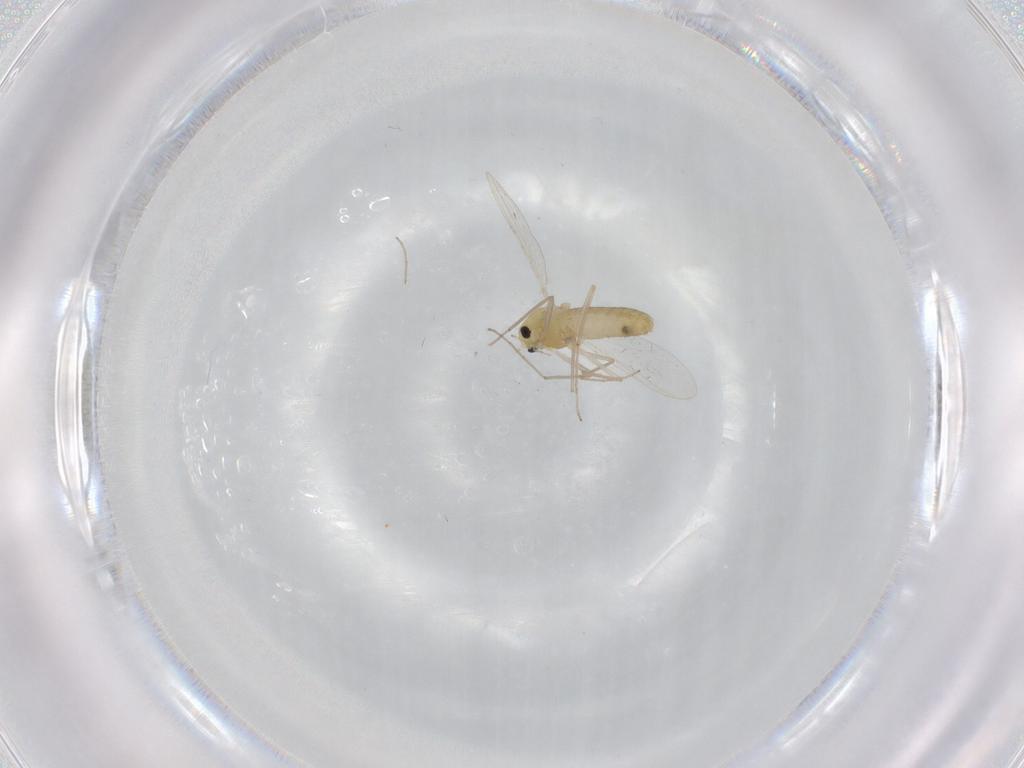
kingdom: Animalia
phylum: Arthropoda
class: Insecta
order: Diptera
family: Chironomidae
